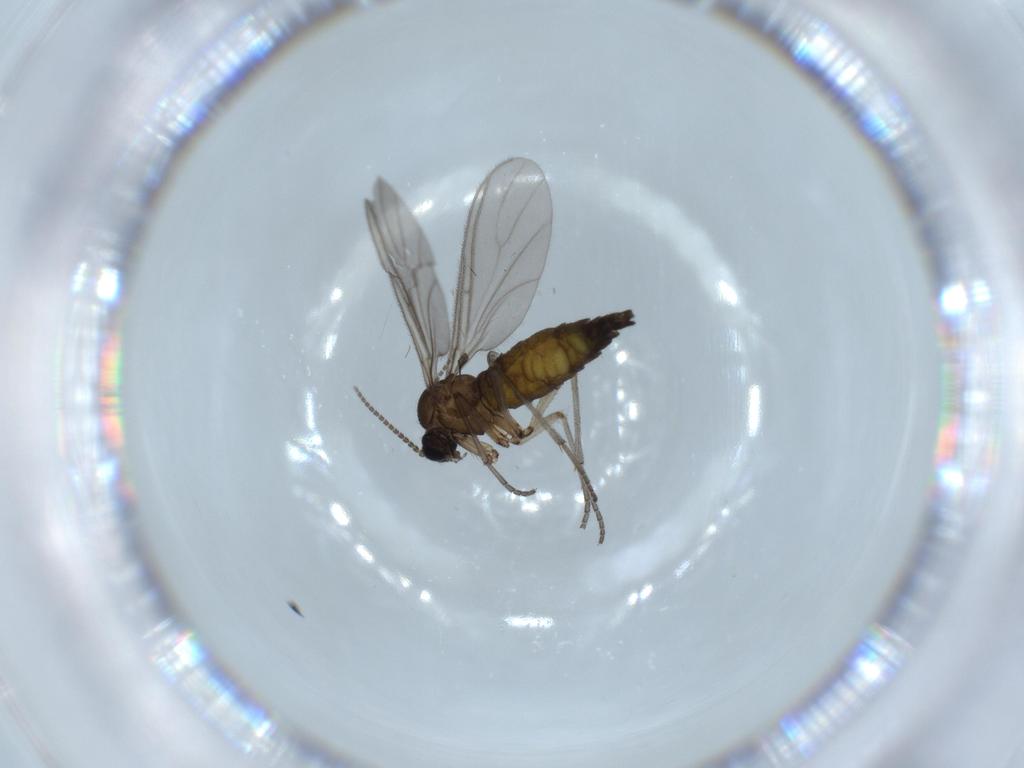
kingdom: Animalia
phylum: Arthropoda
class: Insecta
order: Diptera
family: Sciaridae
